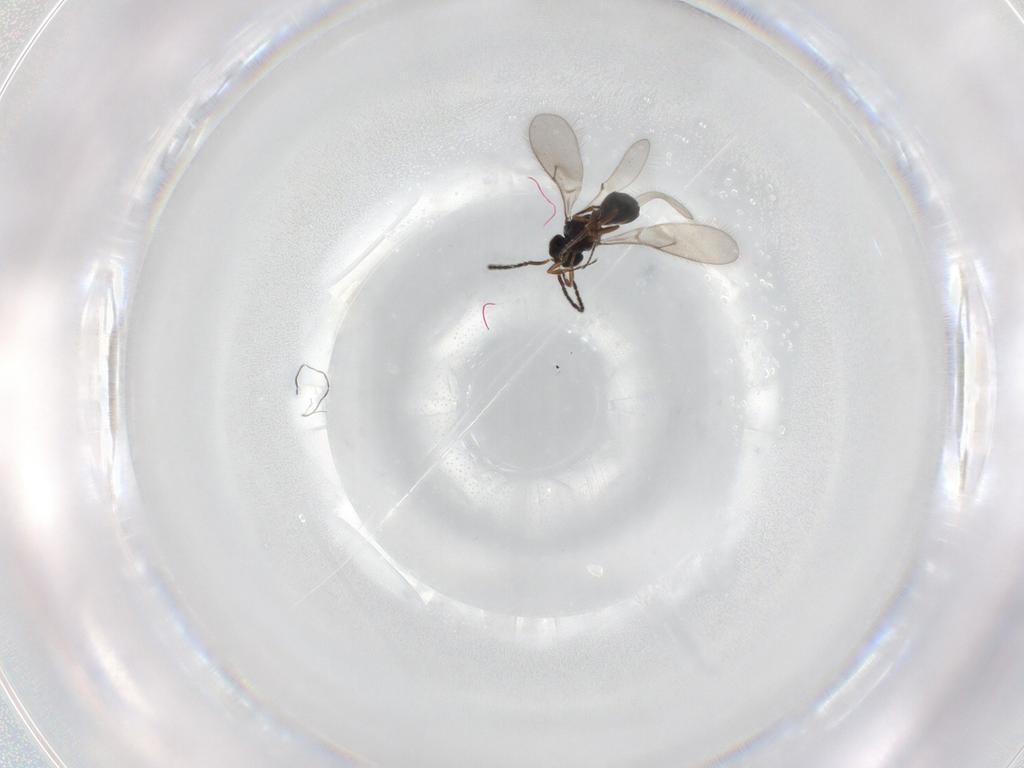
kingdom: Animalia
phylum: Arthropoda
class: Insecta
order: Hymenoptera
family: Scelionidae
